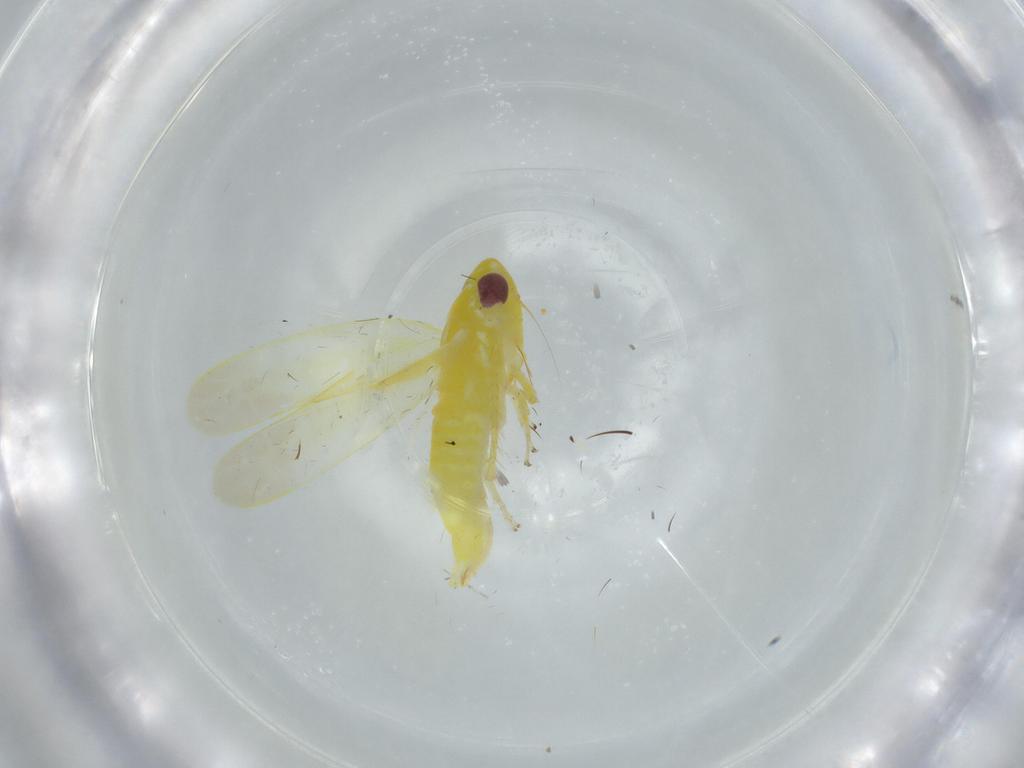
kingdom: Animalia
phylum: Arthropoda
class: Insecta
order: Hemiptera
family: Cicadellidae
